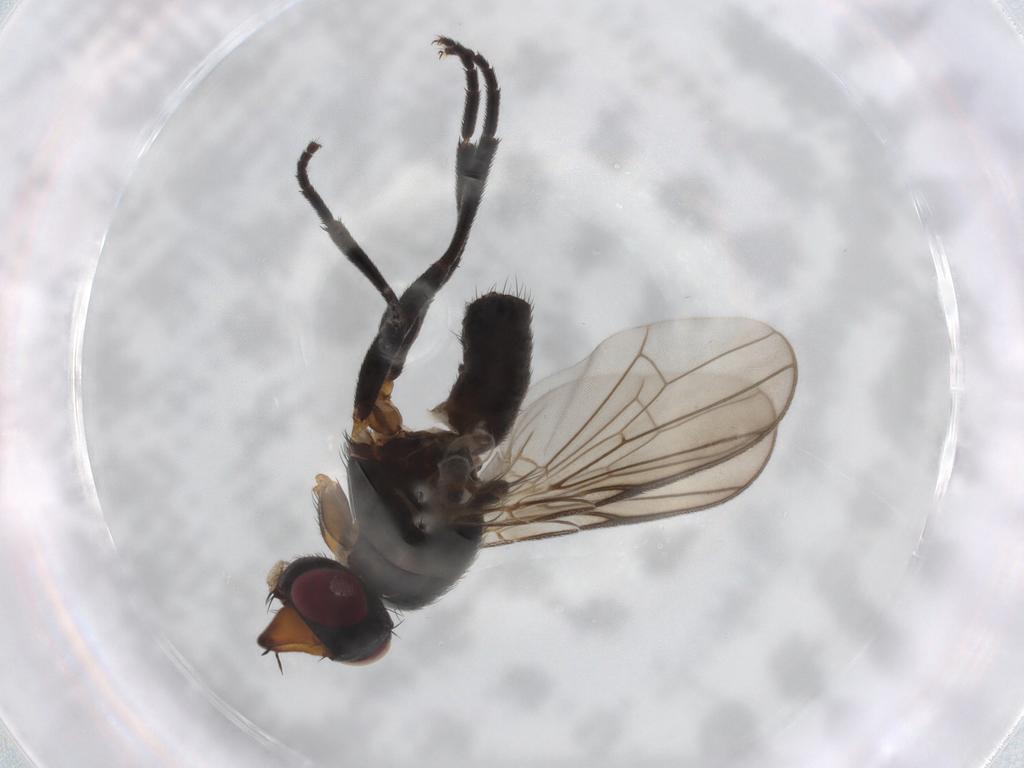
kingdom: Animalia
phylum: Arthropoda
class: Insecta
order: Diptera
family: Calliphoridae
